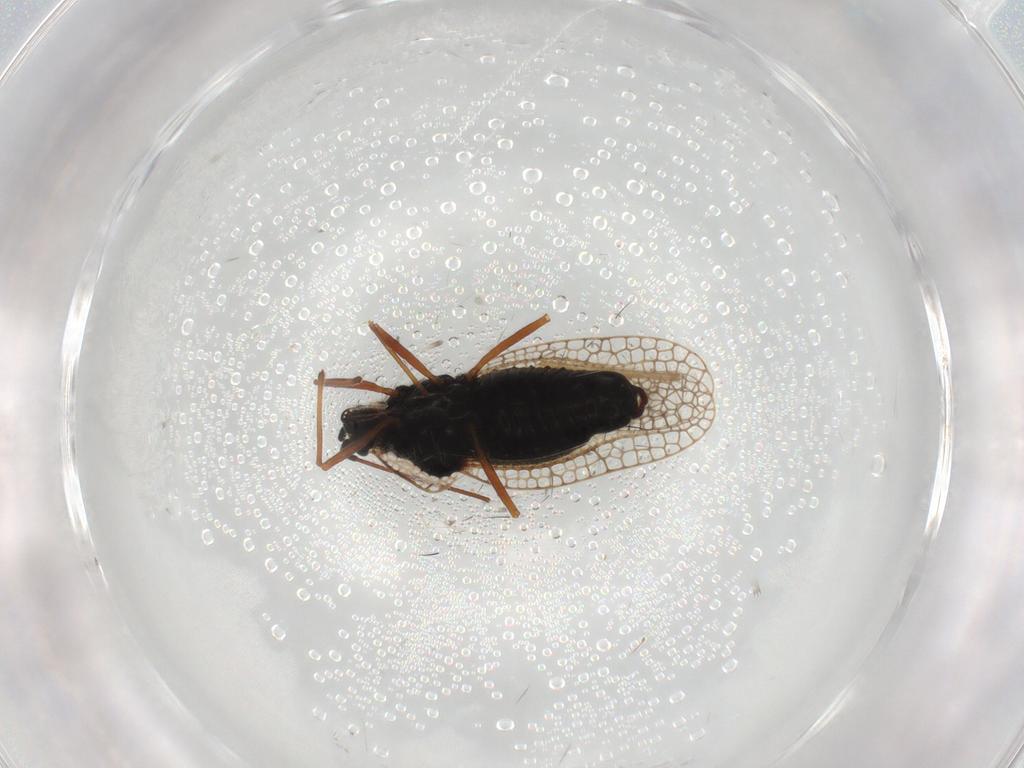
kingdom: Animalia
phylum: Arthropoda
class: Insecta
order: Hemiptera
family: Tingidae
